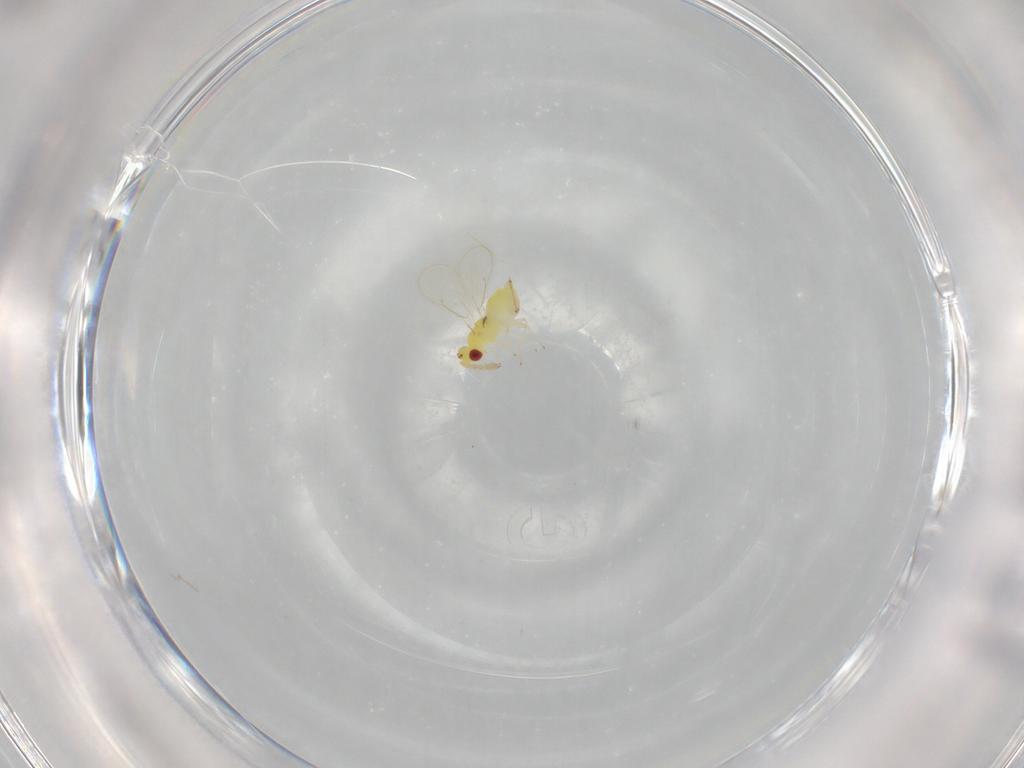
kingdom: Animalia
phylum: Arthropoda
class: Insecta
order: Hymenoptera
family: Eulophidae
